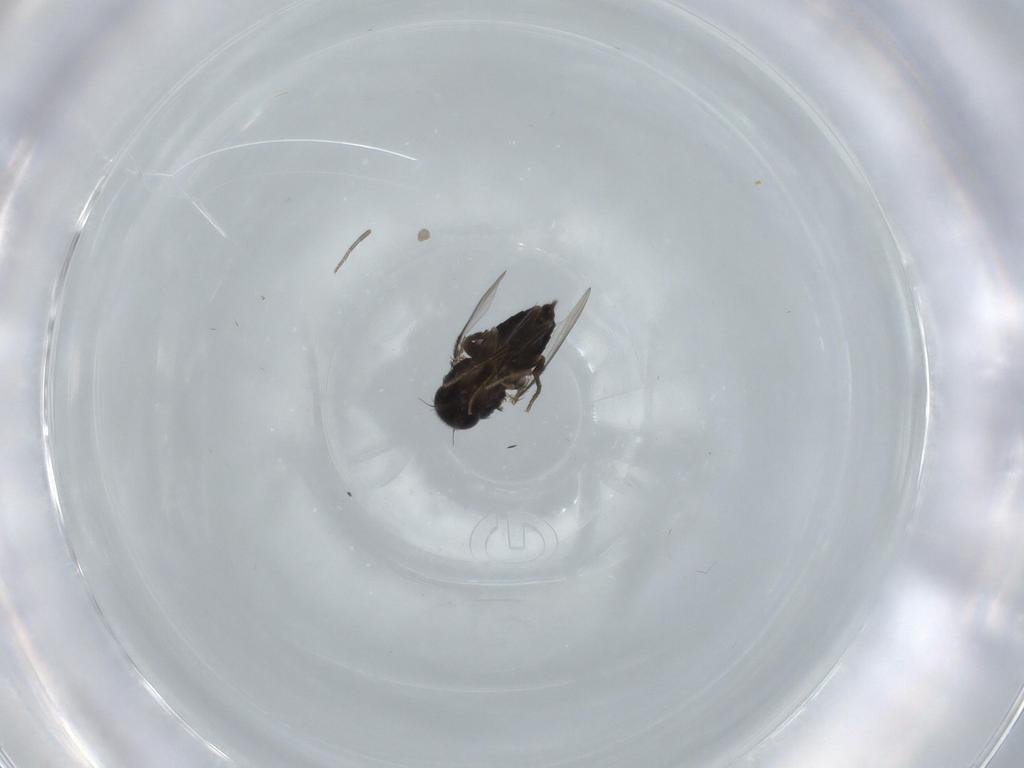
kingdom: Animalia
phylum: Arthropoda
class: Insecta
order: Diptera
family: Phoridae
